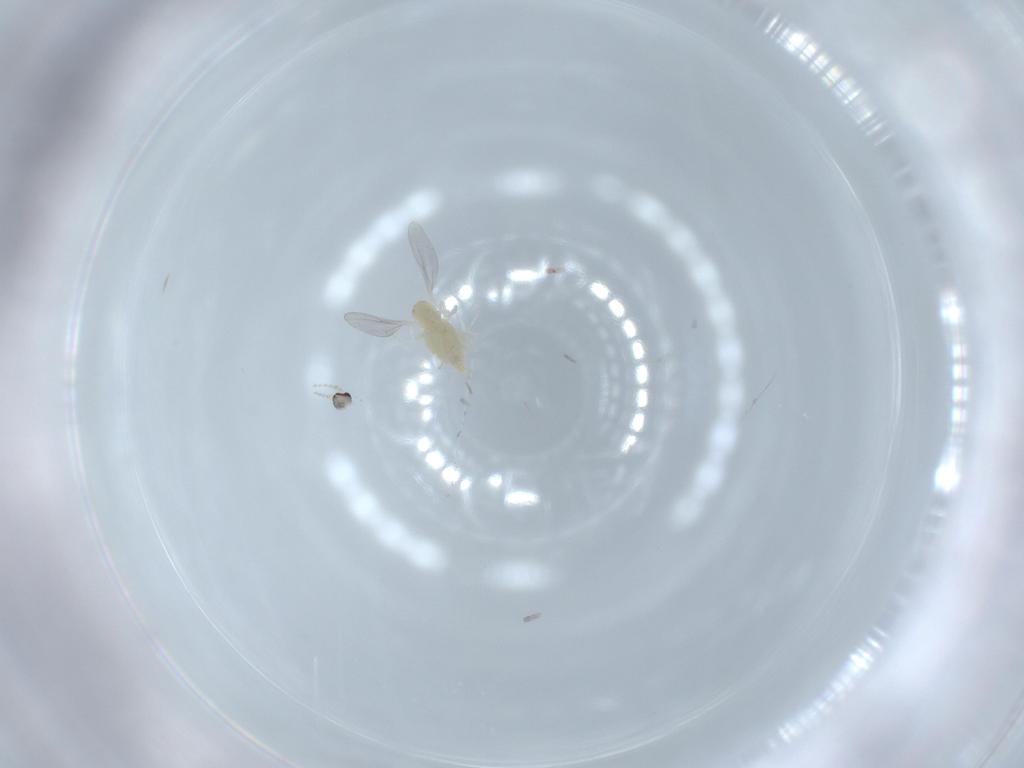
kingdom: Animalia
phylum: Arthropoda
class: Insecta
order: Diptera
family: Cecidomyiidae
